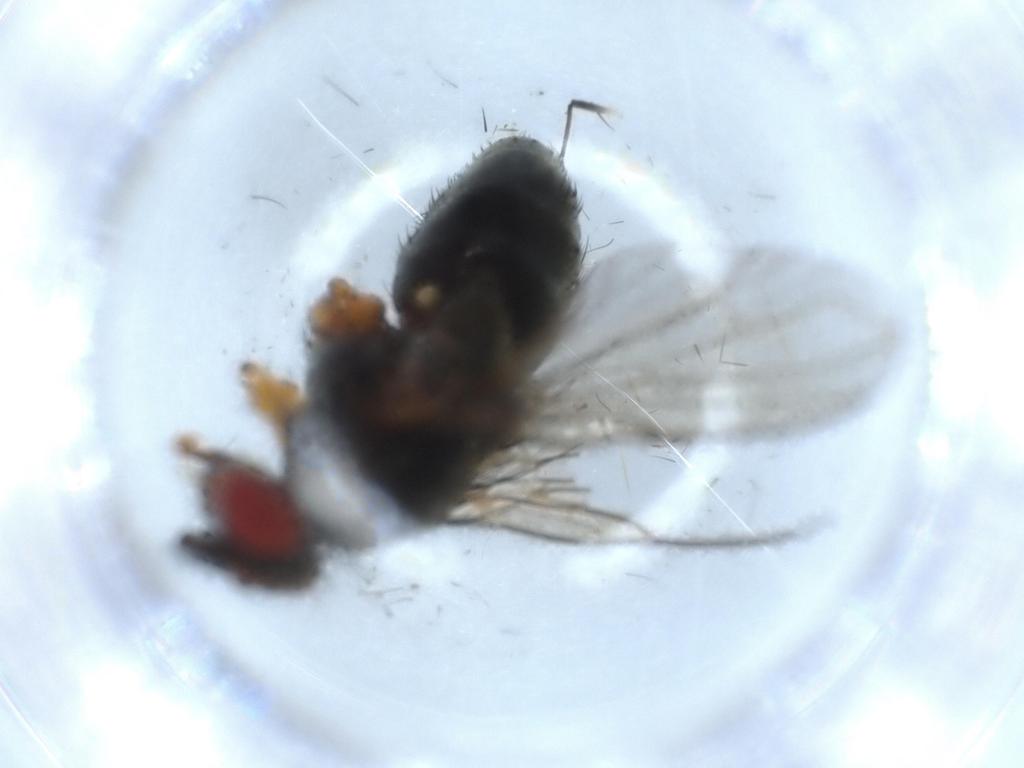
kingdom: Animalia
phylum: Arthropoda
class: Insecta
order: Diptera
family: Tachinidae
